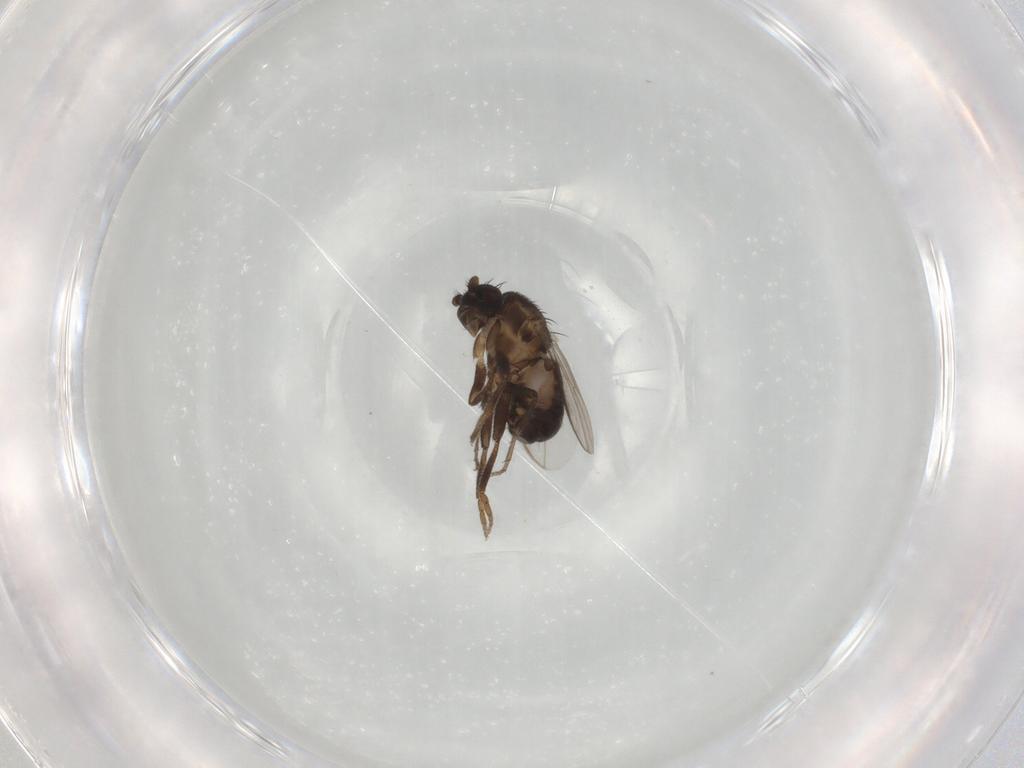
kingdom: Animalia
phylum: Arthropoda
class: Insecta
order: Diptera
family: Sphaeroceridae
